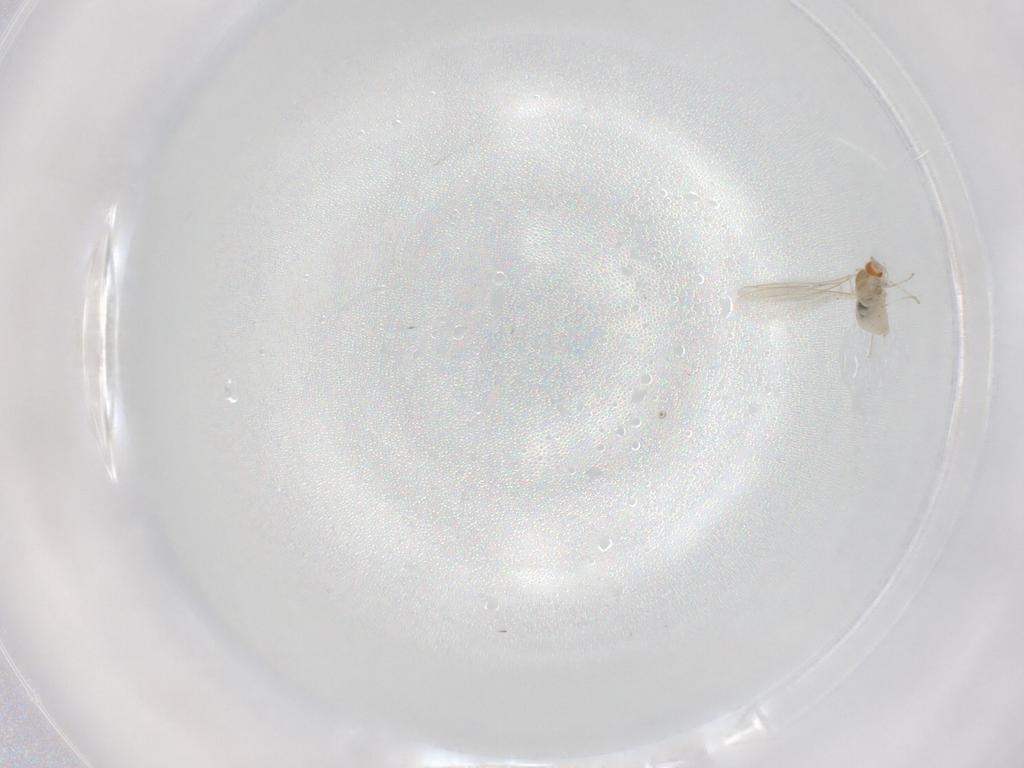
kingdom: Animalia
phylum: Arthropoda
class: Insecta
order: Diptera
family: Cecidomyiidae
